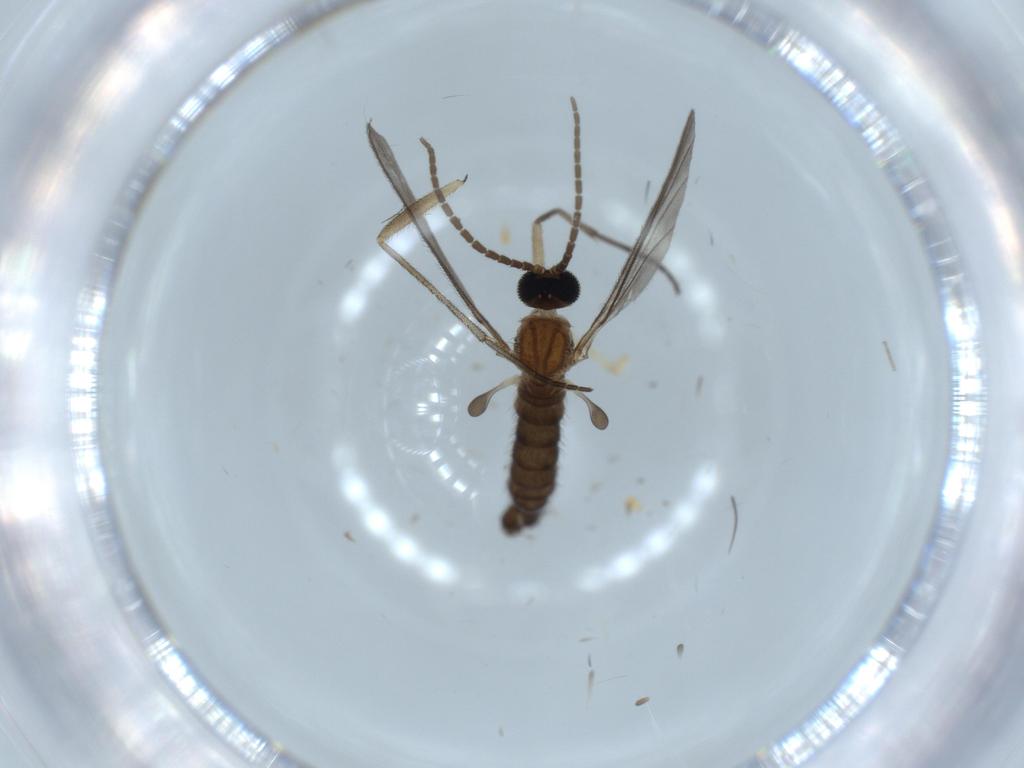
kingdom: Animalia
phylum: Arthropoda
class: Insecta
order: Diptera
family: Sciaridae
